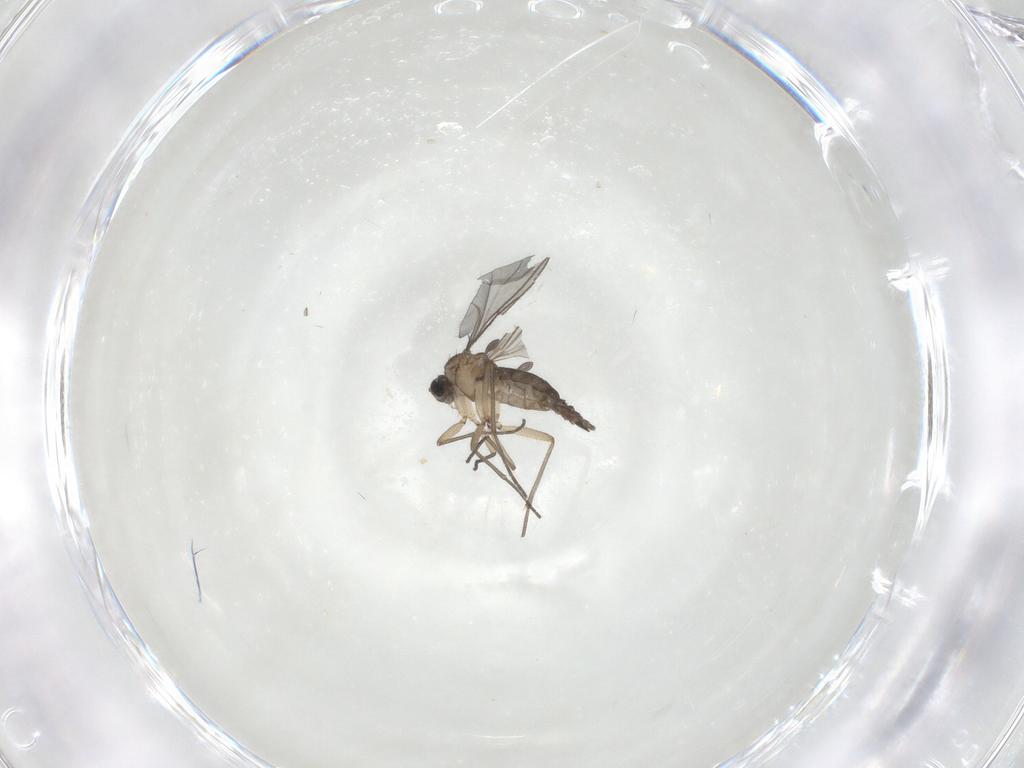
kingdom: Animalia
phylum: Arthropoda
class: Insecta
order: Diptera
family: Sciaridae
